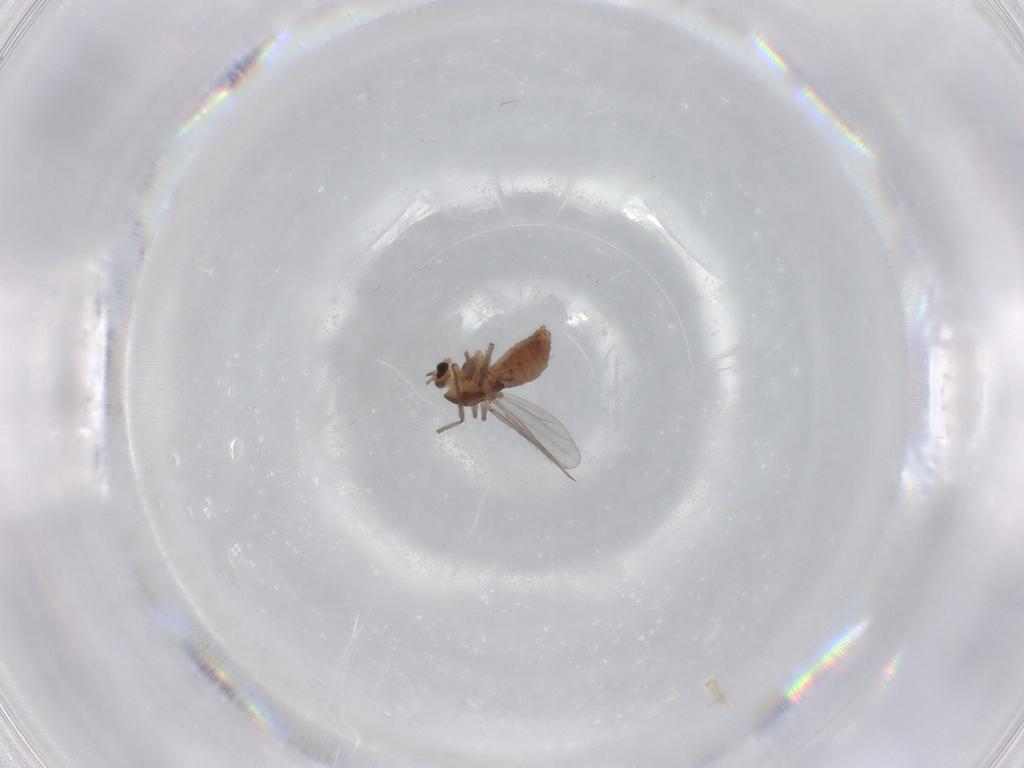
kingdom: Animalia
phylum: Arthropoda
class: Insecta
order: Diptera
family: Chironomidae
